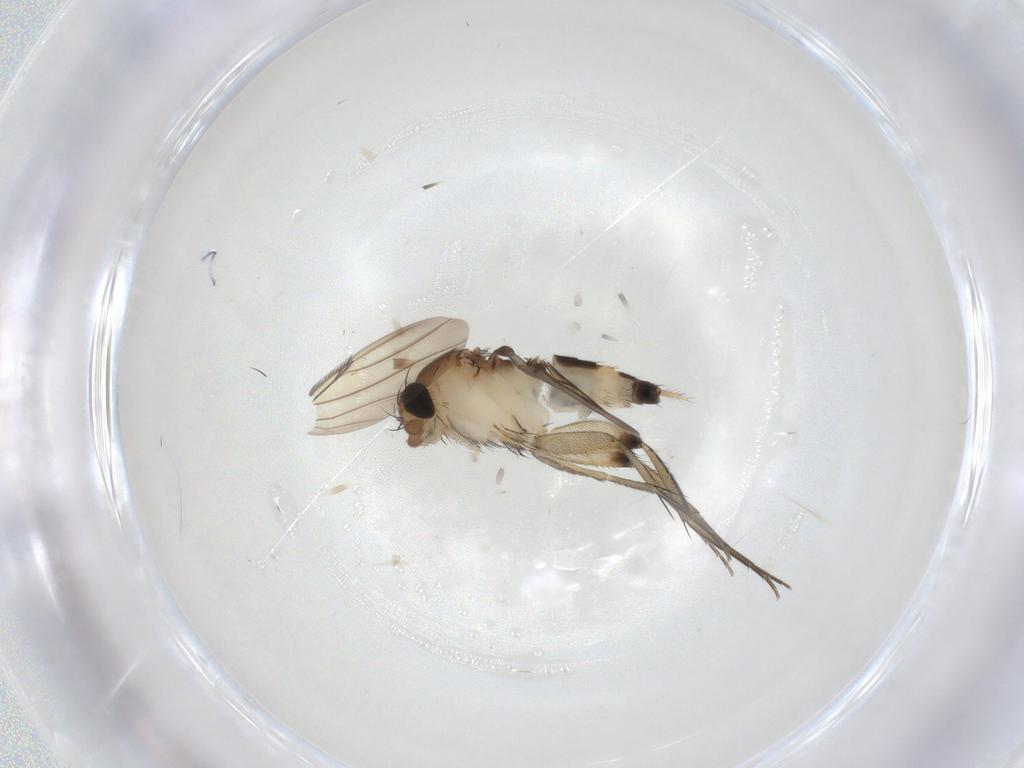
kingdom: Animalia
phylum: Arthropoda
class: Insecta
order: Diptera
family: Phoridae
